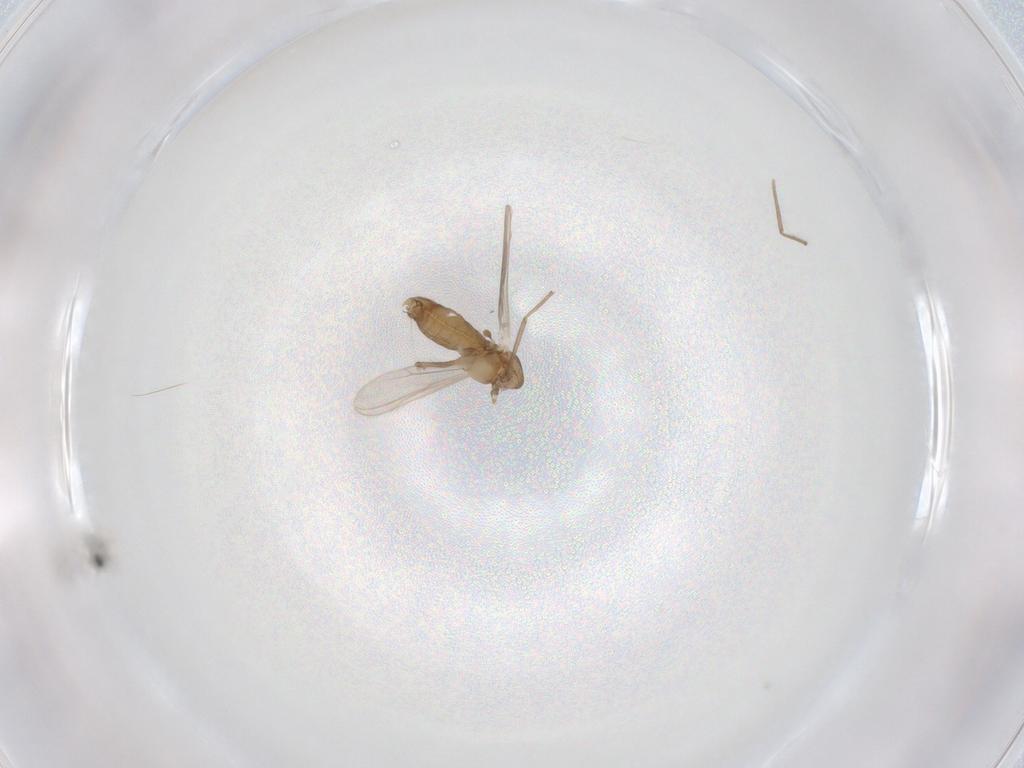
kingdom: Animalia
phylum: Arthropoda
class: Insecta
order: Diptera
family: Chironomidae
